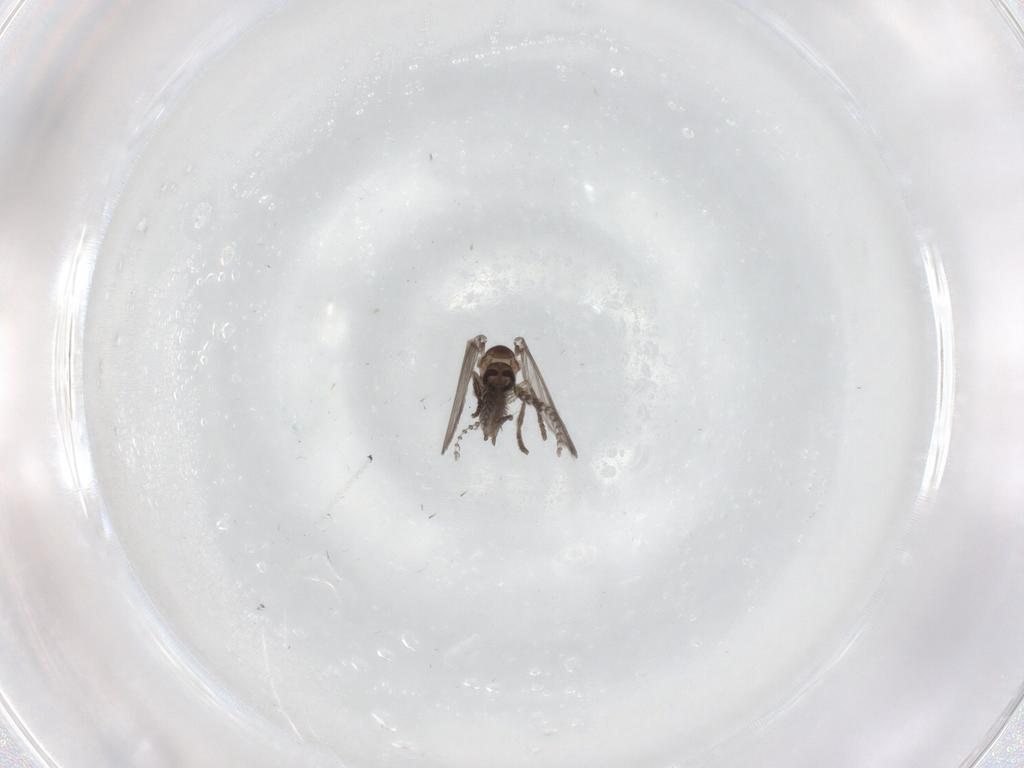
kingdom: Animalia
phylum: Arthropoda
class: Insecta
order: Diptera
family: Psychodidae
